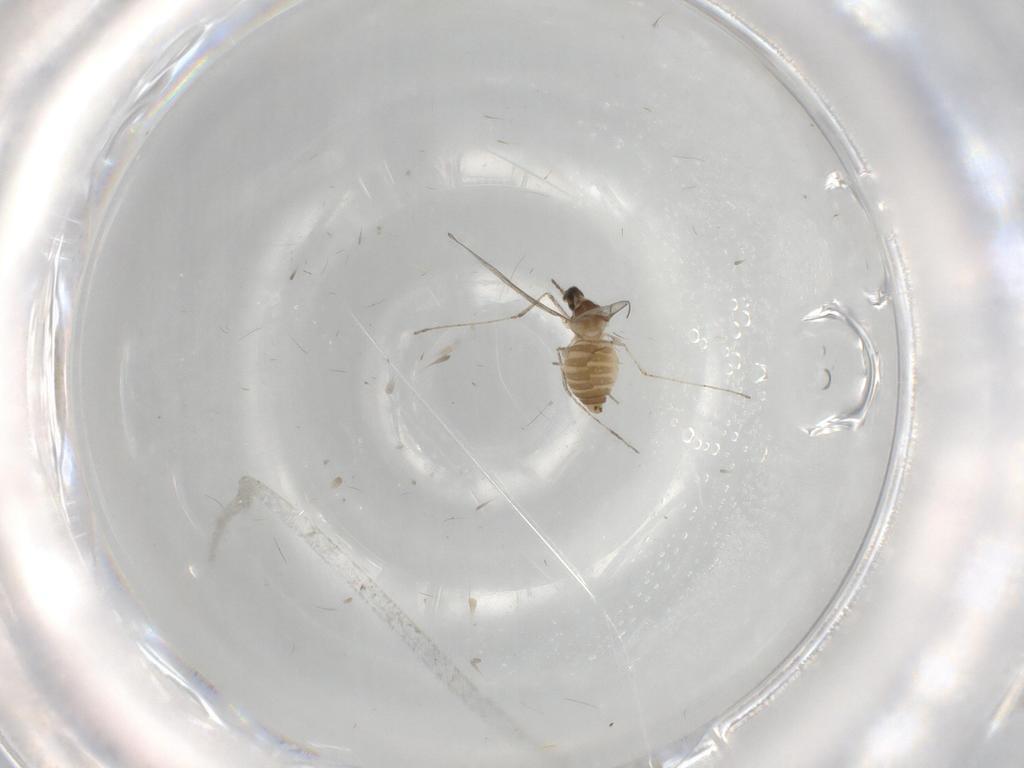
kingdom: Animalia
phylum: Arthropoda
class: Insecta
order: Diptera
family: Cecidomyiidae
